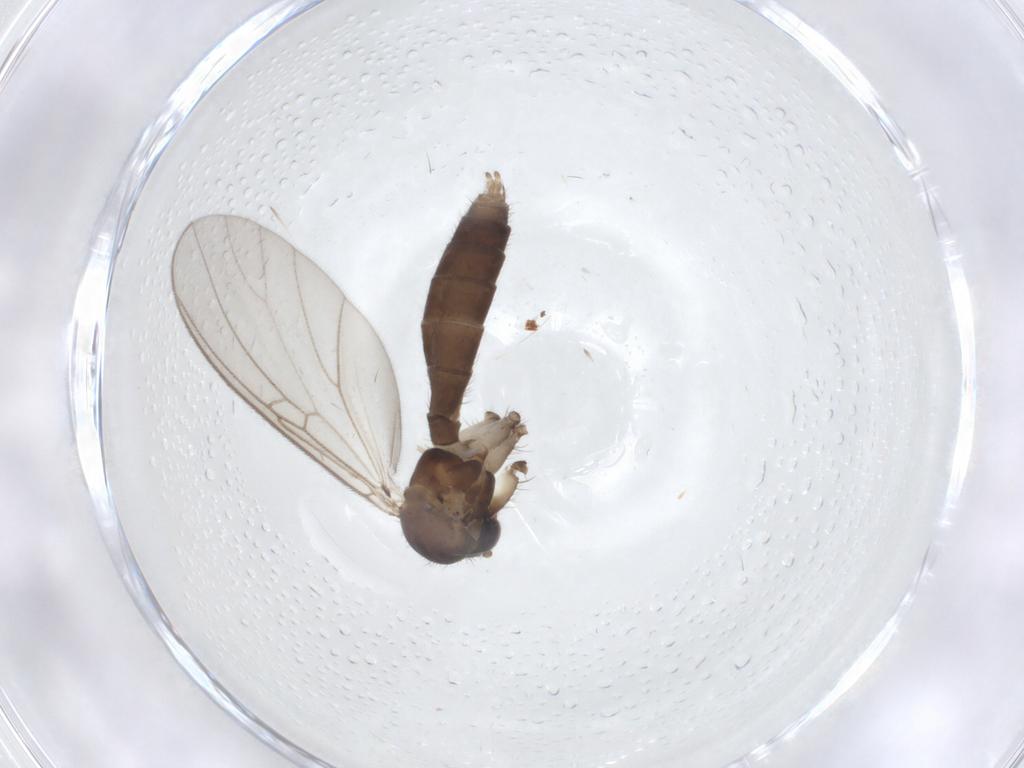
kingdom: Animalia
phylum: Arthropoda
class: Insecta
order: Diptera
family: Mycetophilidae
